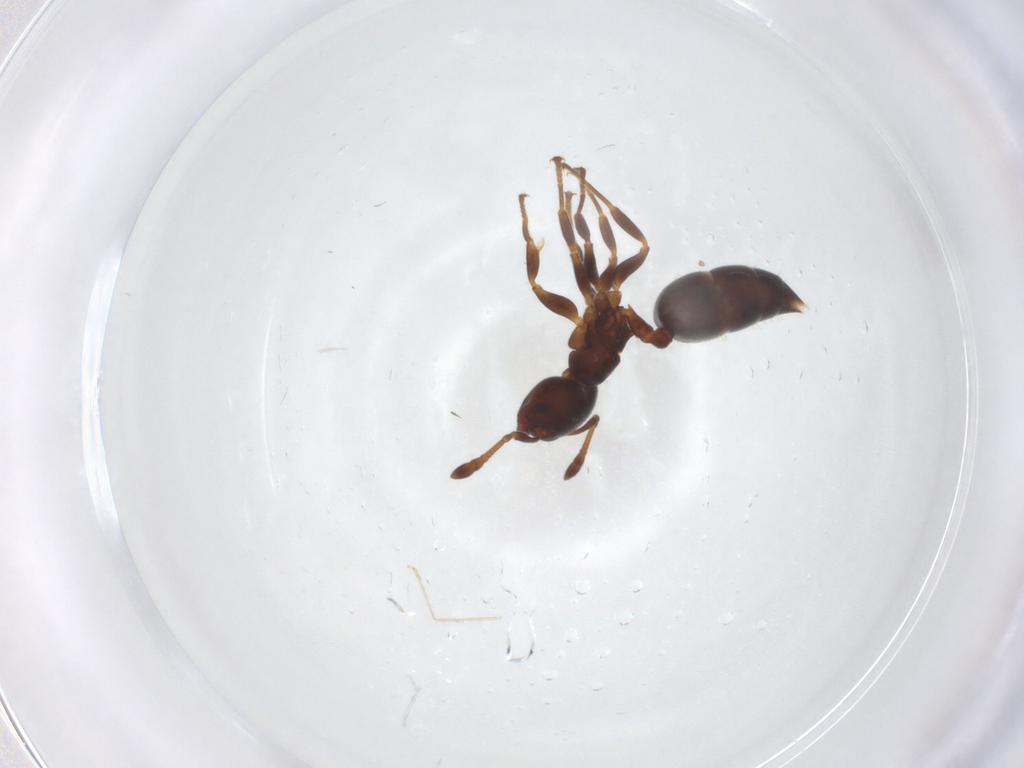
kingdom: Animalia
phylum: Arthropoda
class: Insecta
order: Hymenoptera
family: Formicidae
